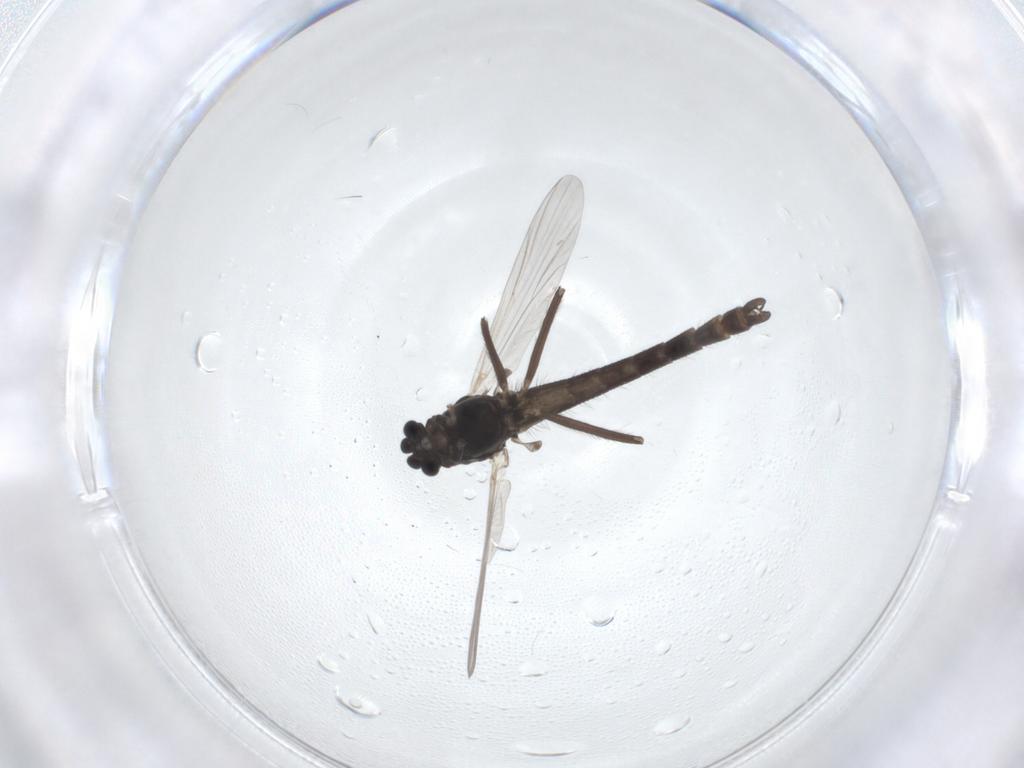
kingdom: Animalia
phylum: Arthropoda
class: Insecta
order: Diptera
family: Chironomidae
